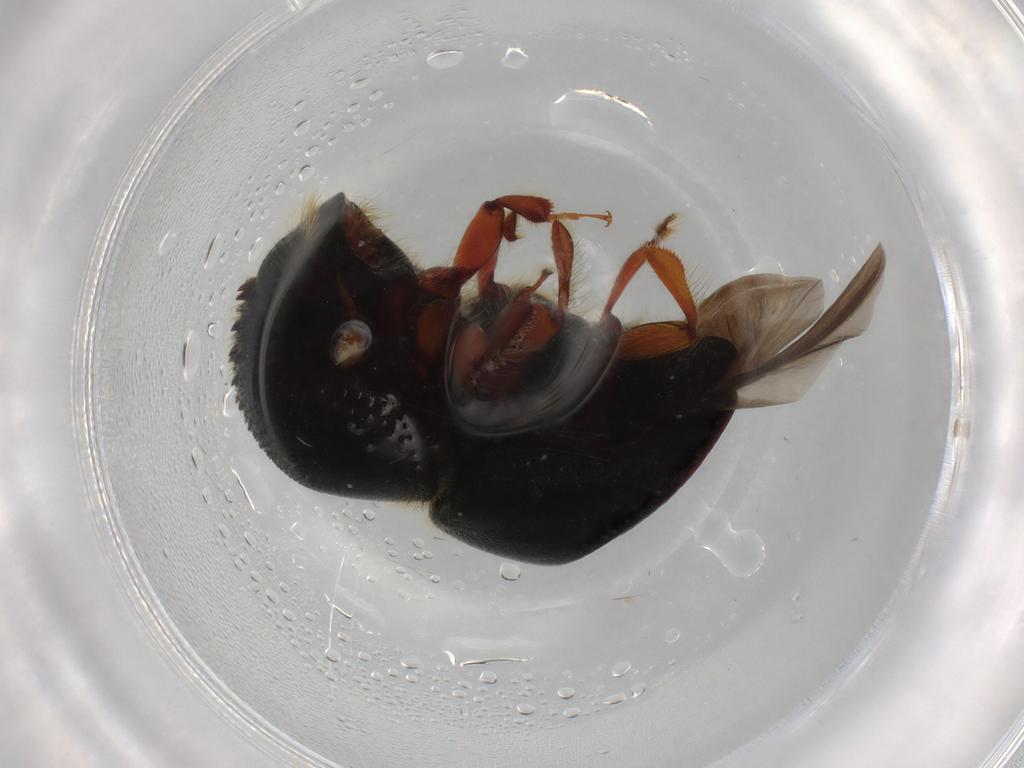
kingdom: Animalia
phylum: Arthropoda
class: Insecta
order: Coleoptera
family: Curculionidae
